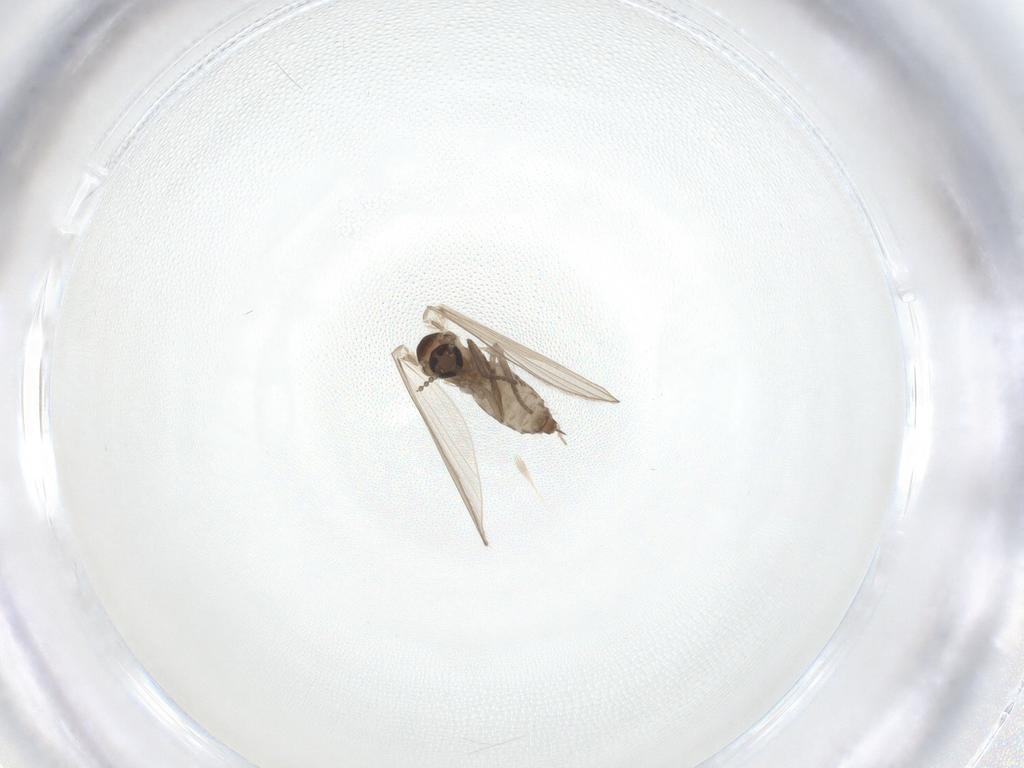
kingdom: Animalia
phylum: Arthropoda
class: Insecta
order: Diptera
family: Psychodidae
